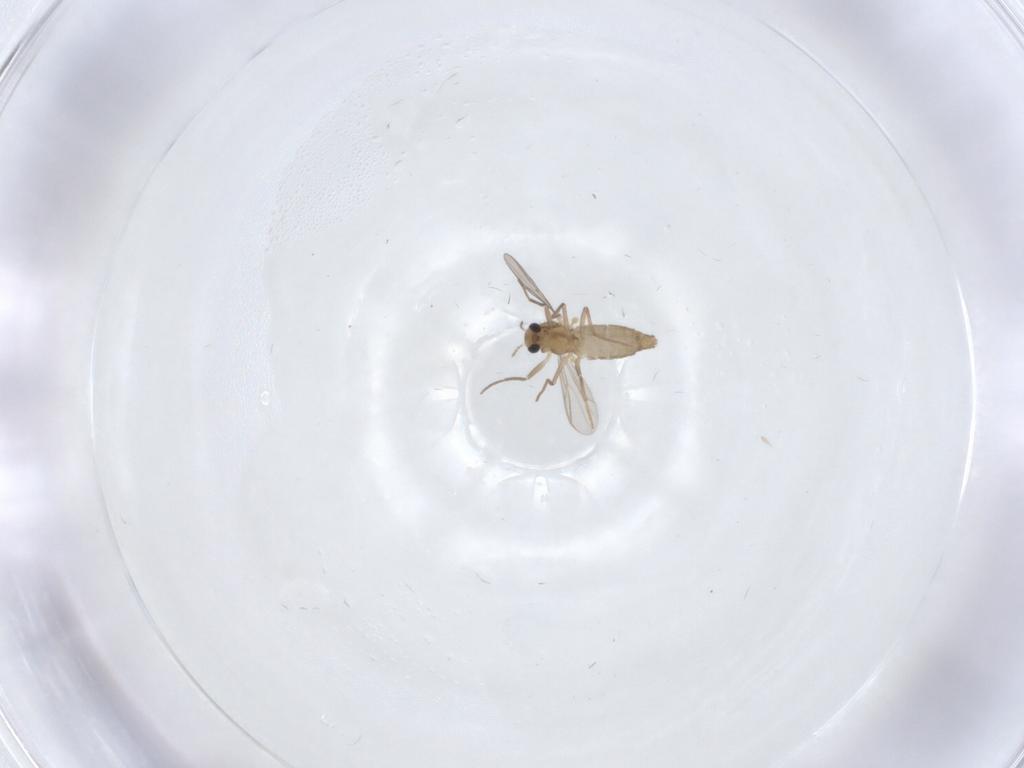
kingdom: Animalia
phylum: Arthropoda
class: Insecta
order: Diptera
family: Chironomidae
